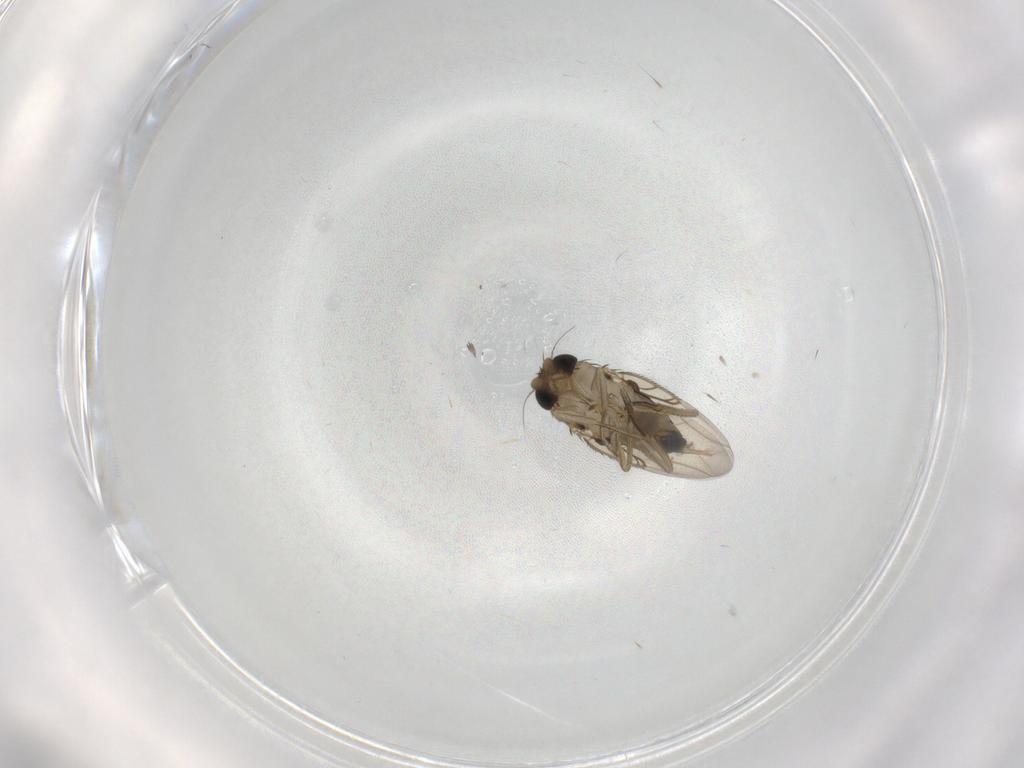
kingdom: Animalia
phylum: Arthropoda
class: Insecta
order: Diptera
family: Phoridae
